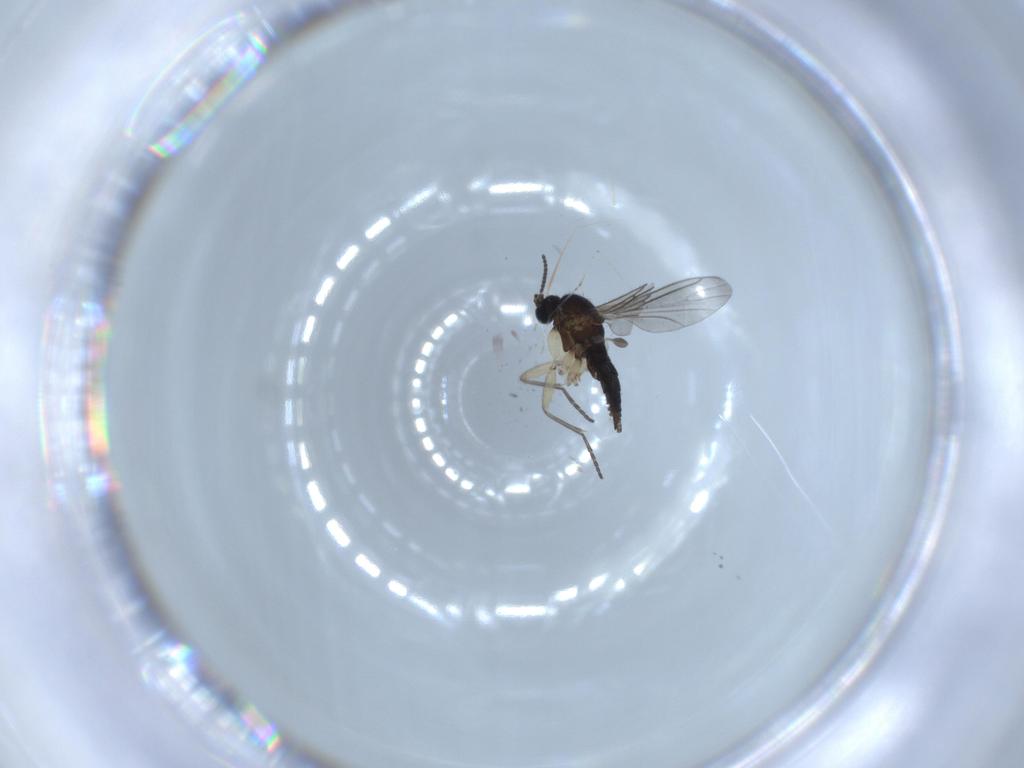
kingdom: Animalia
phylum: Arthropoda
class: Insecta
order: Diptera
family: Sciaridae
